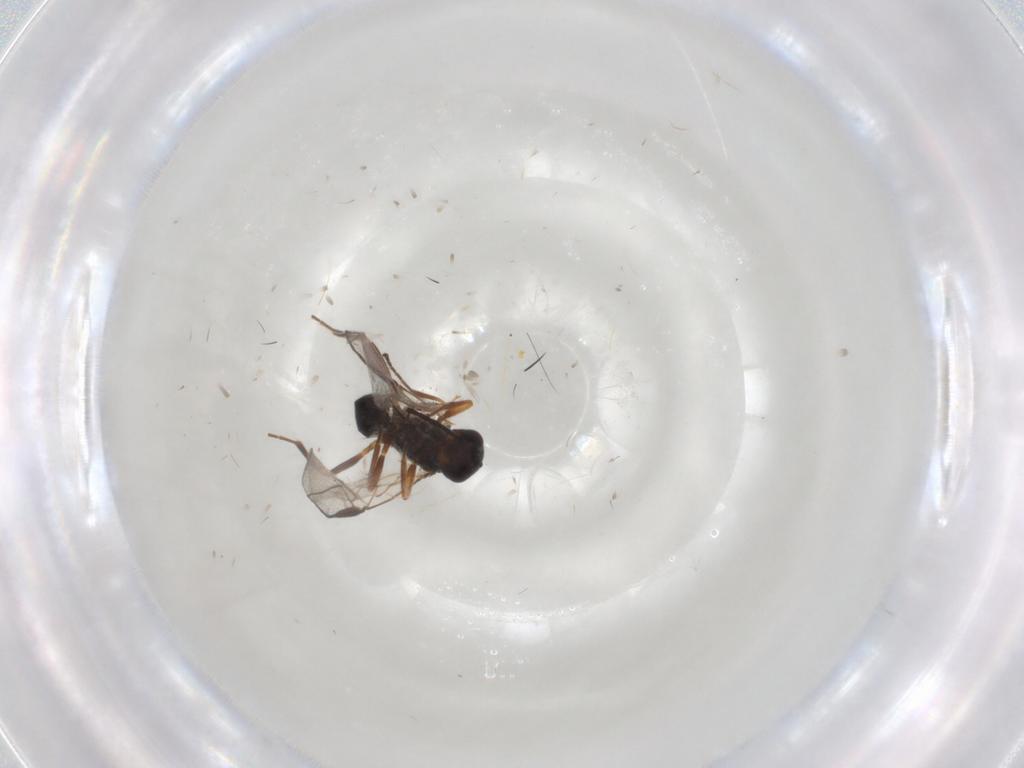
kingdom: Animalia
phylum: Arthropoda
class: Insecta
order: Diptera
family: Glossinidae
